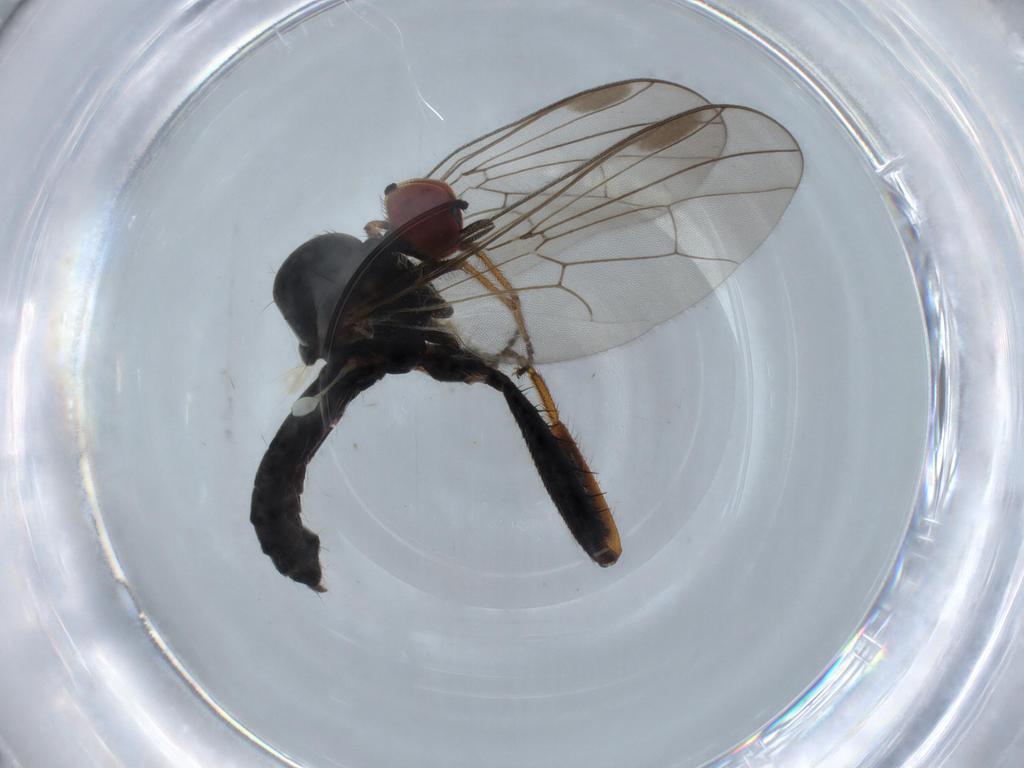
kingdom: Animalia
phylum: Arthropoda
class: Insecta
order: Diptera
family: Hybotidae
